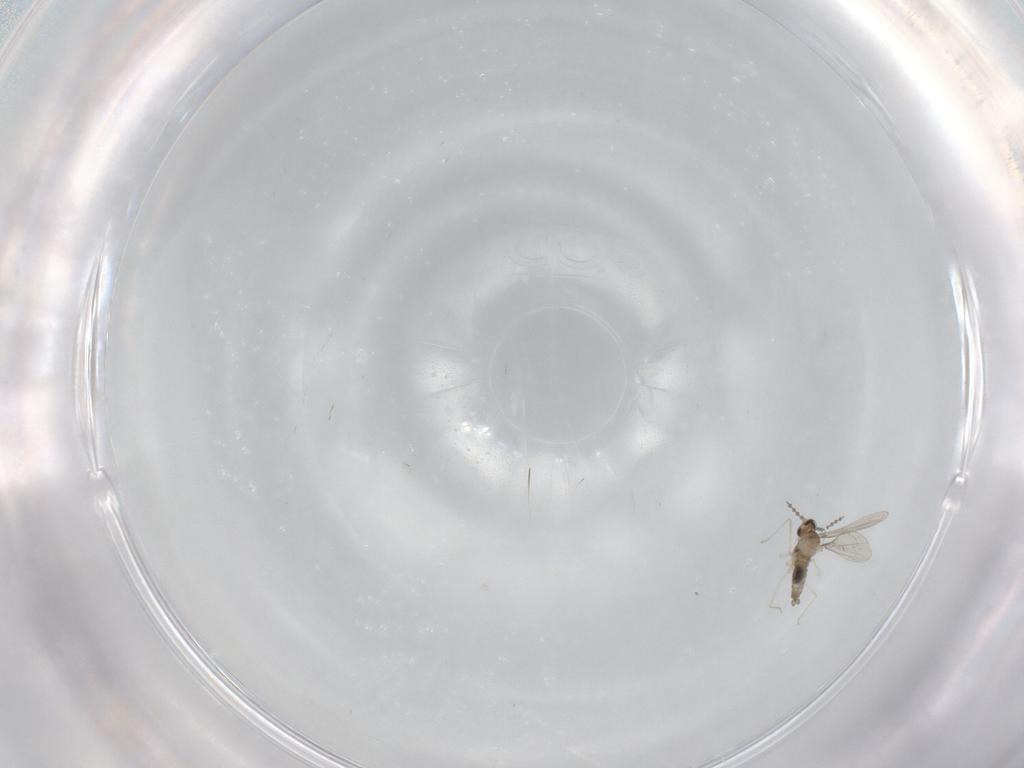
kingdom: Animalia
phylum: Arthropoda
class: Insecta
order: Diptera
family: Cecidomyiidae
